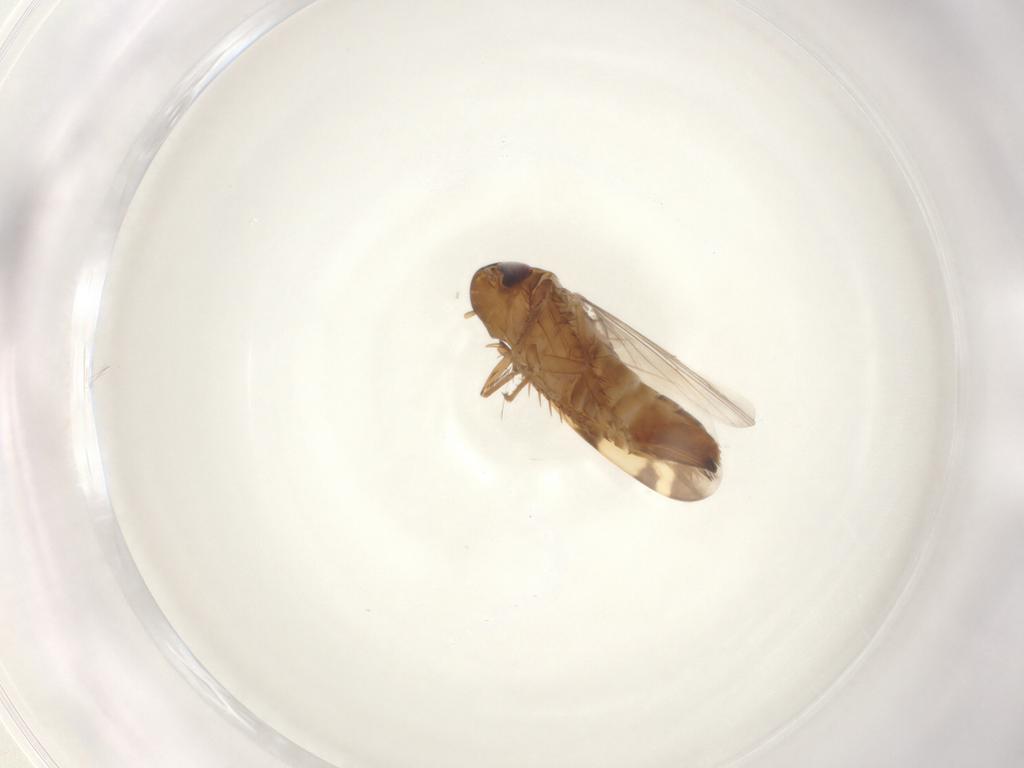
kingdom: Animalia
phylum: Arthropoda
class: Insecta
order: Hemiptera
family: Cicadellidae
